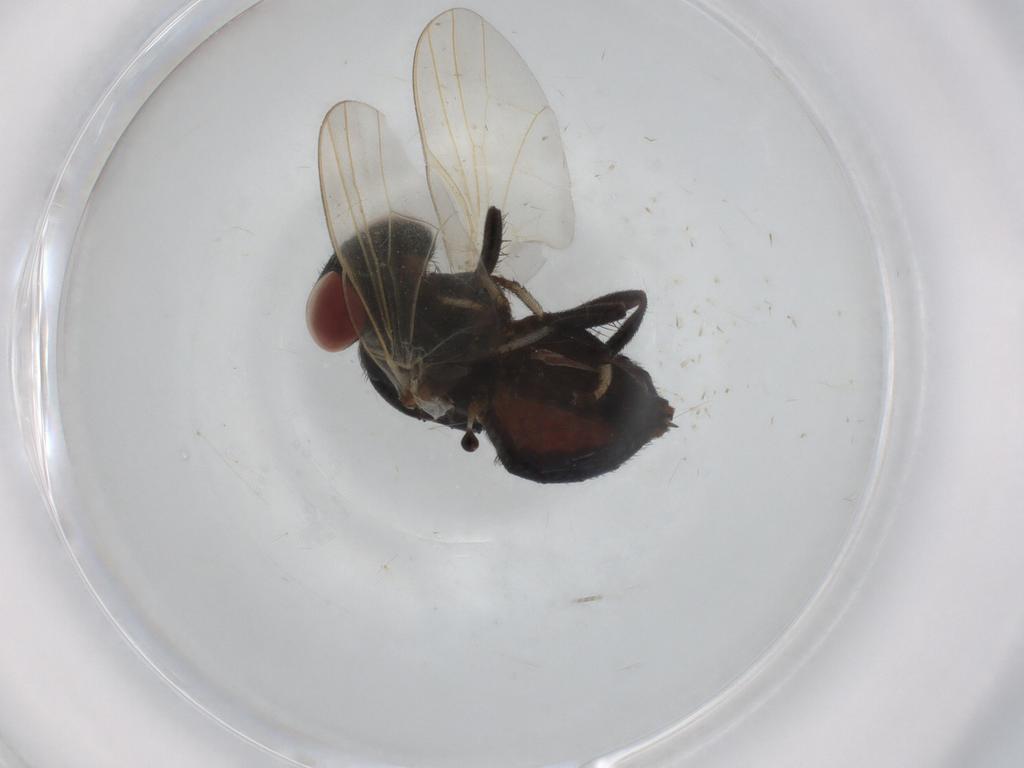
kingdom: Animalia
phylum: Arthropoda
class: Insecta
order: Diptera
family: Lonchaeidae
